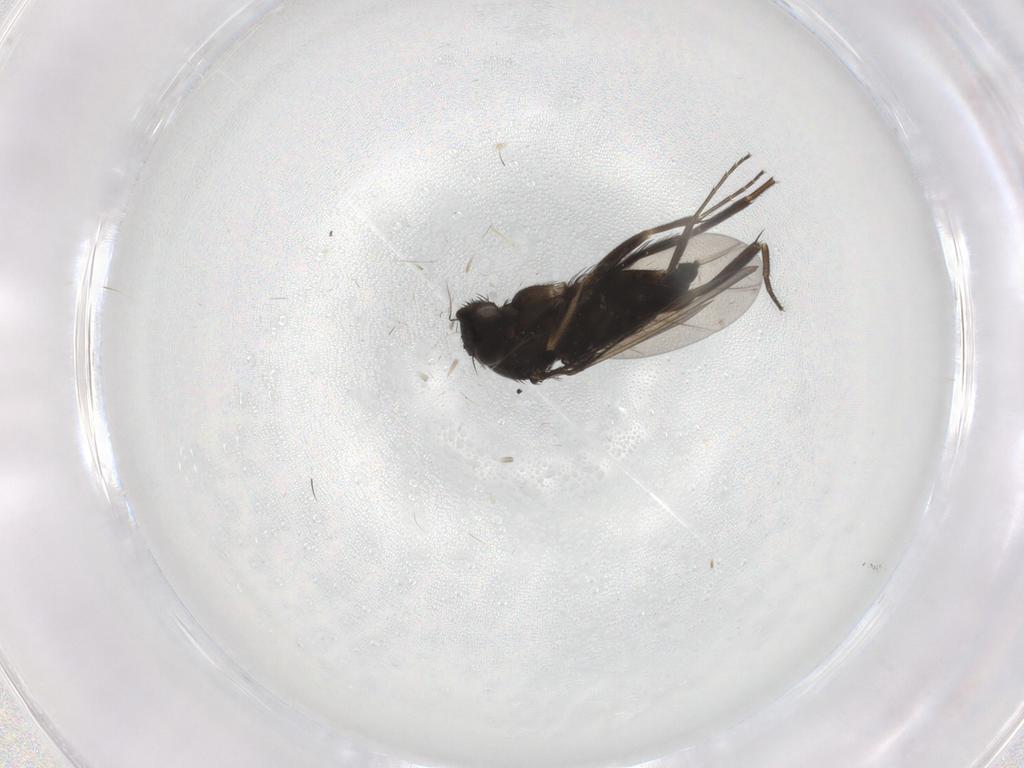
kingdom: Animalia
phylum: Arthropoda
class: Insecta
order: Diptera
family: Phoridae
